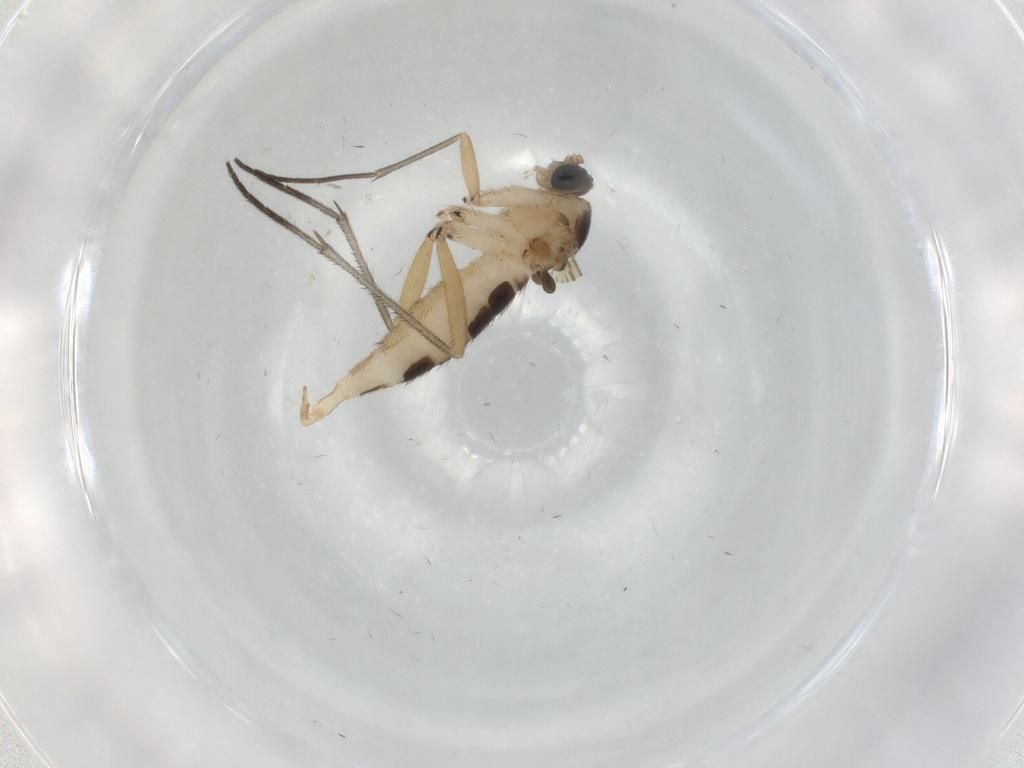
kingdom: Animalia
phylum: Arthropoda
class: Insecta
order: Diptera
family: Sciaridae
